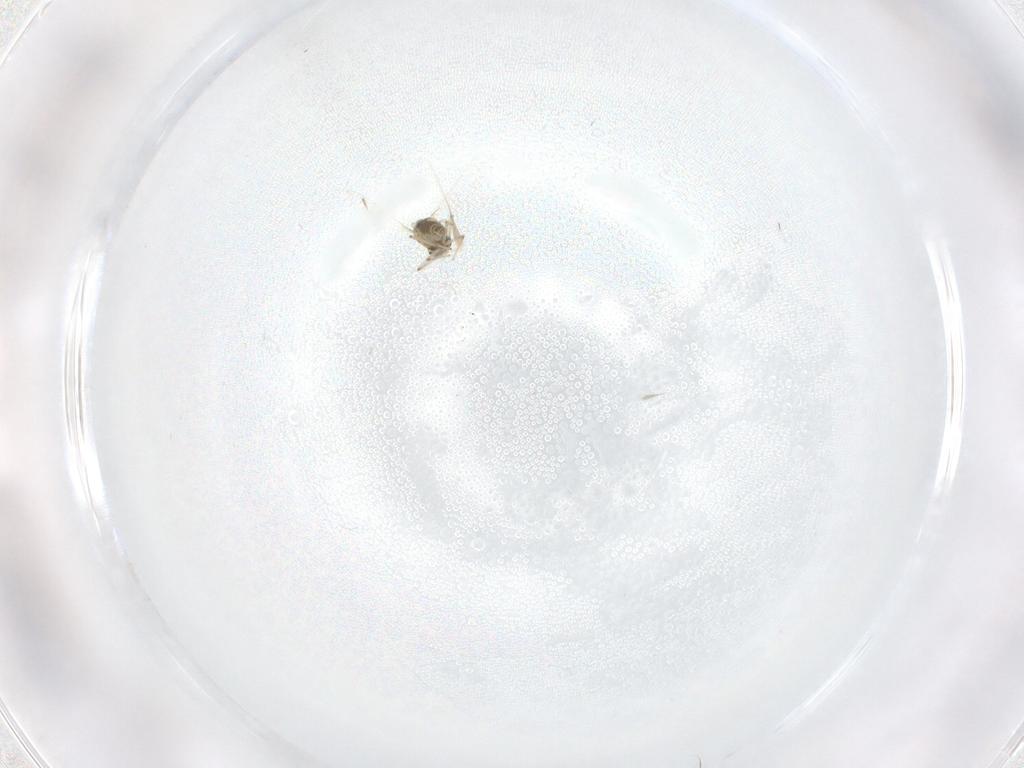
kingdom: Animalia
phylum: Arthropoda
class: Insecta
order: Diptera
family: Chironomidae
